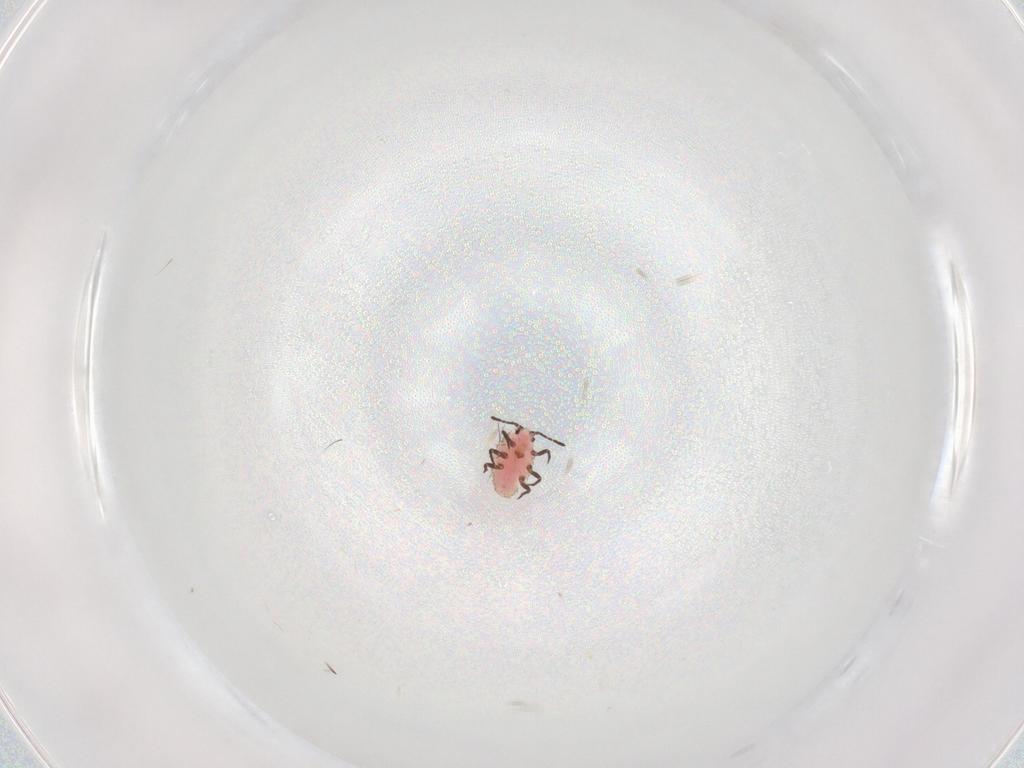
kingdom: Animalia
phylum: Arthropoda
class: Insecta
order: Hemiptera
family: Monophlebidae
